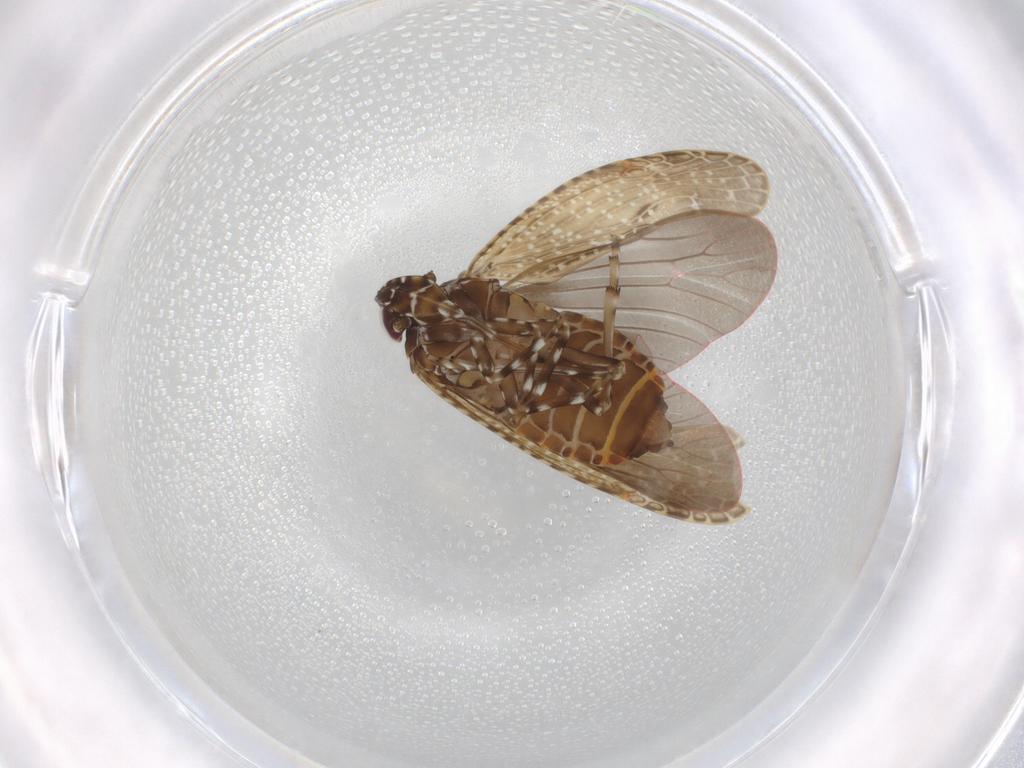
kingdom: Animalia
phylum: Arthropoda
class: Insecta
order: Hemiptera
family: Achilidae
